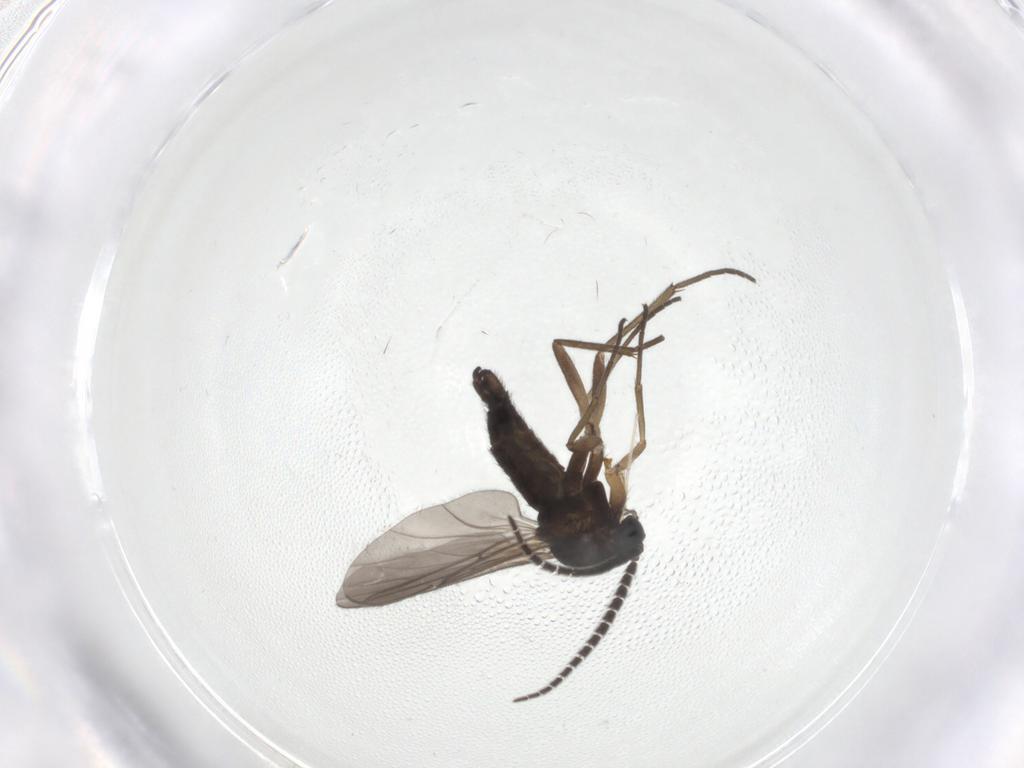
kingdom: Animalia
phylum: Arthropoda
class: Insecta
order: Diptera
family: Sciaridae
